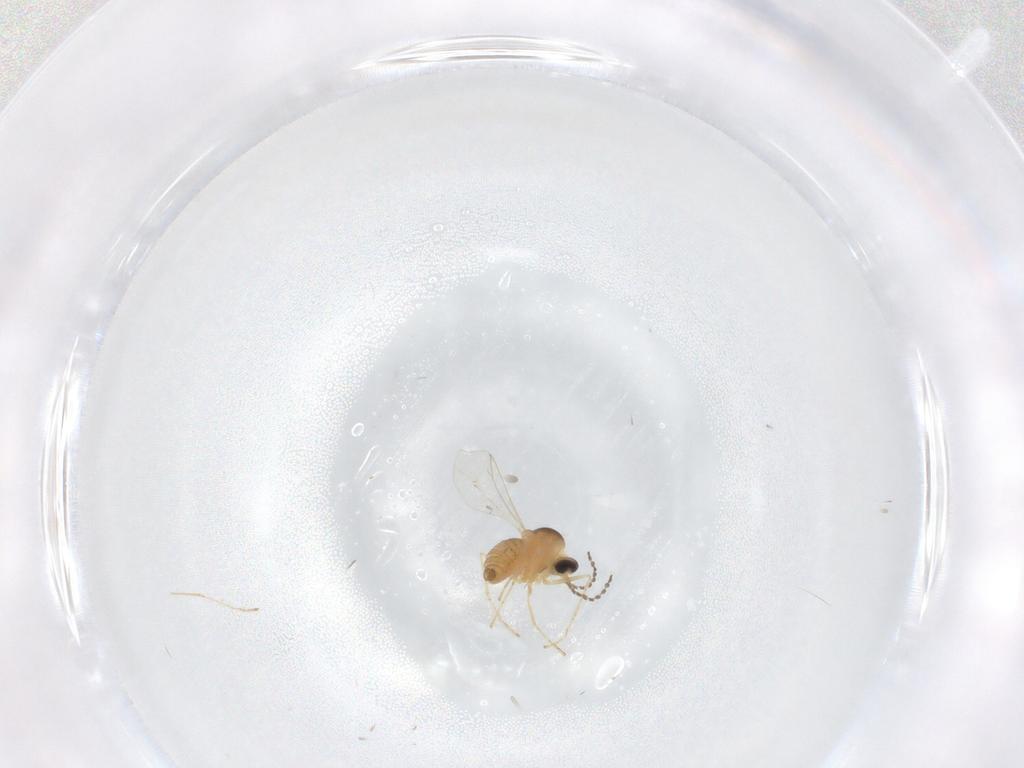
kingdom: Animalia
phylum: Arthropoda
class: Insecta
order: Diptera
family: Cecidomyiidae
